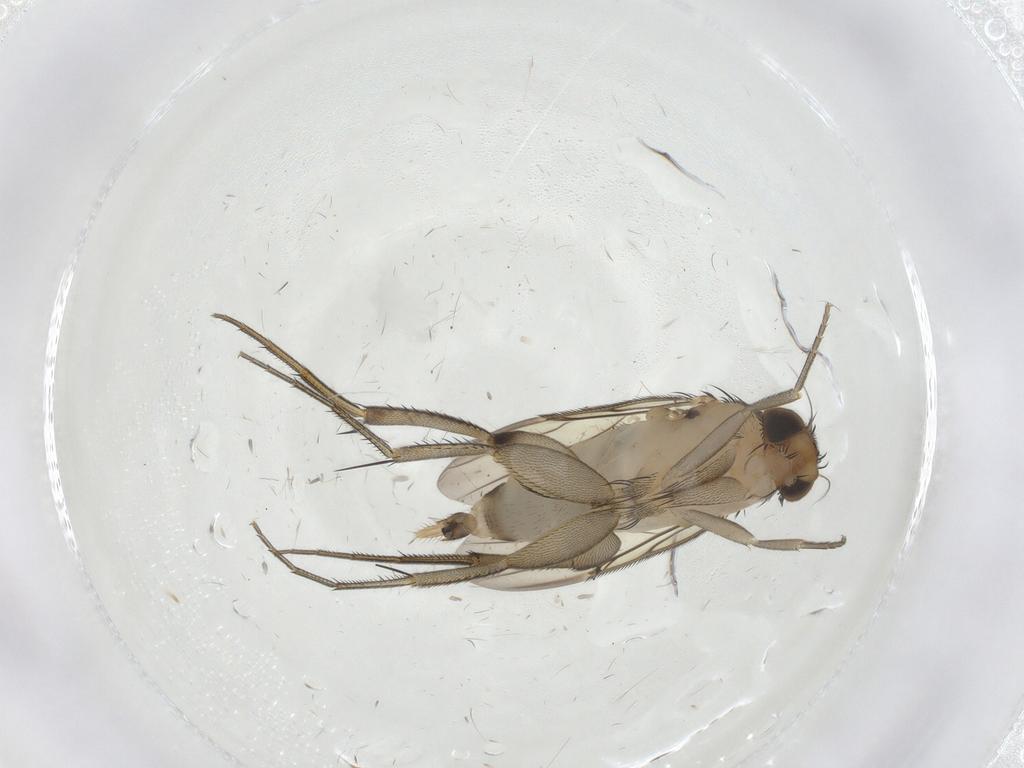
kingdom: Animalia
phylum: Arthropoda
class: Insecta
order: Diptera
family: Phoridae
